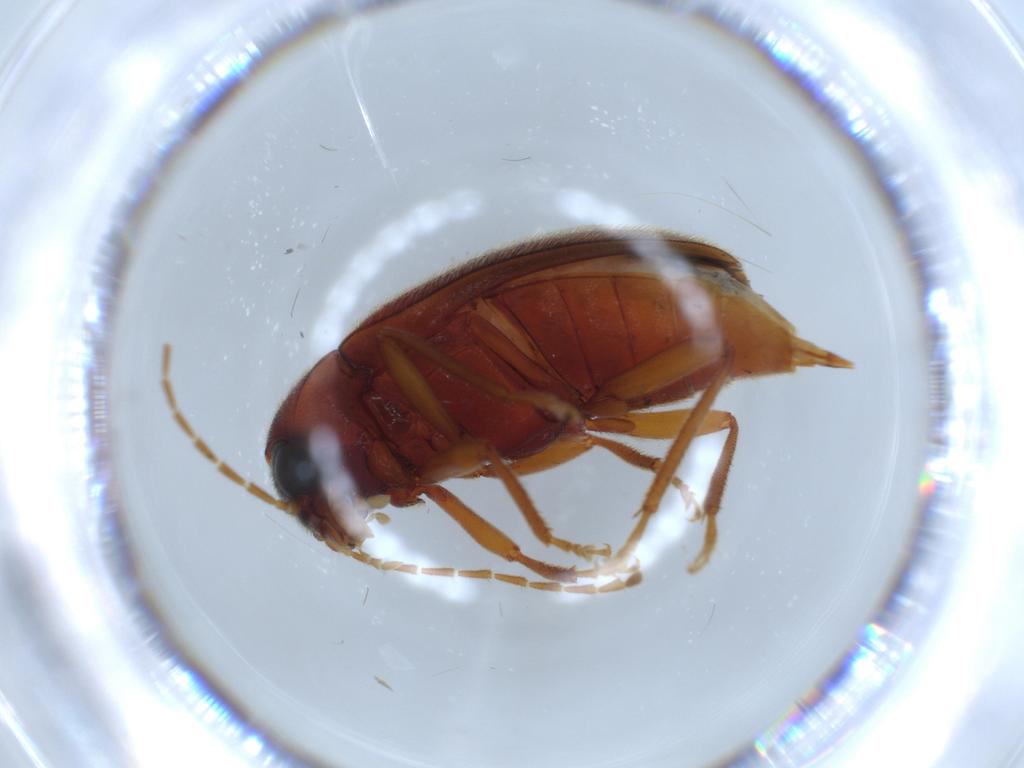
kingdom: Animalia
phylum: Arthropoda
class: Insecta
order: Coleoptera
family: Ptilodactylidae
